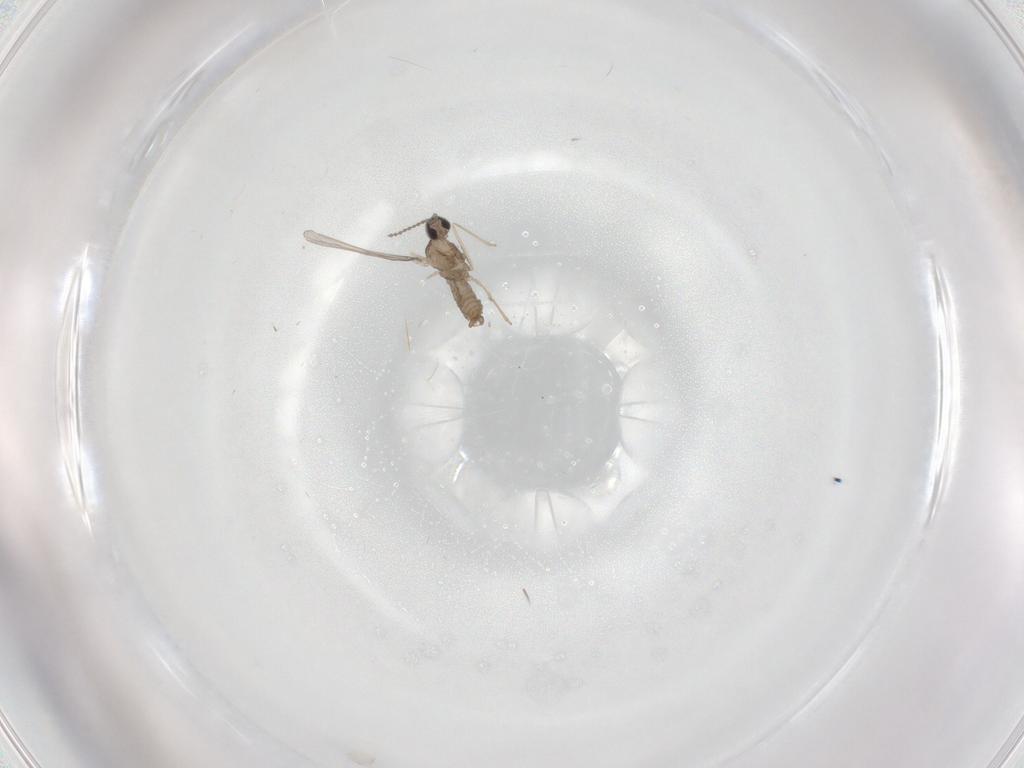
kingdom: Animalia
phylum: Arthropoda
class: Insecta
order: Diptera
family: Cecidomyiidae
